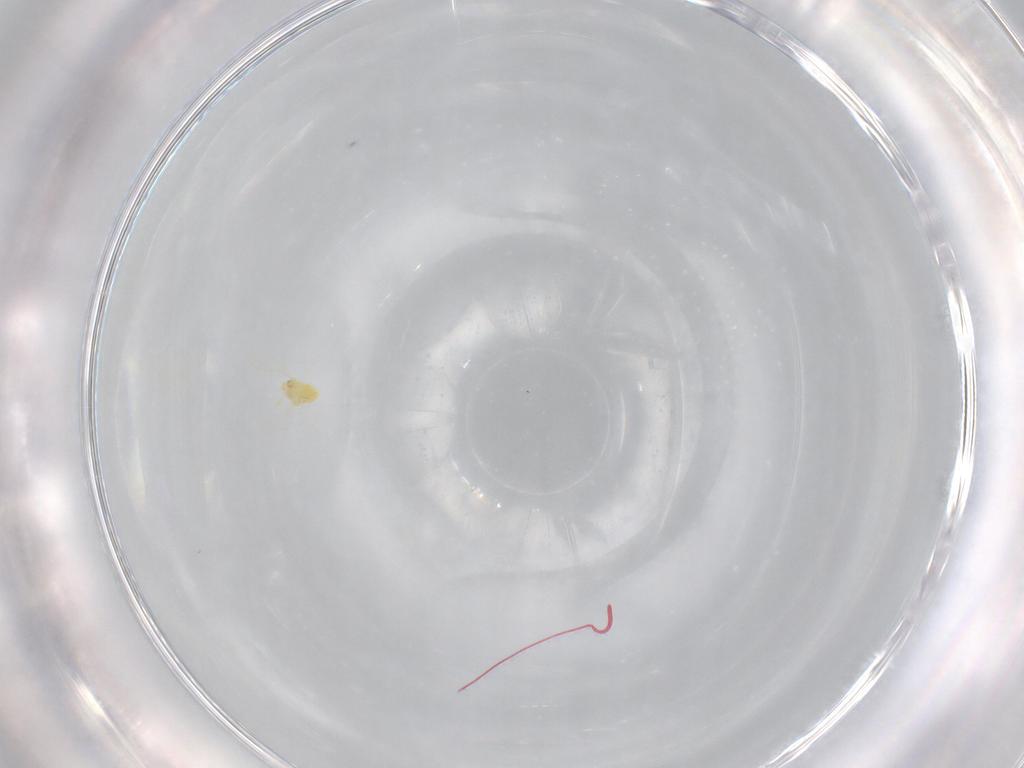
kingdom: Animalia
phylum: Arthropoda
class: Insecta
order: Hymenoptera
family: Aphelinidae
